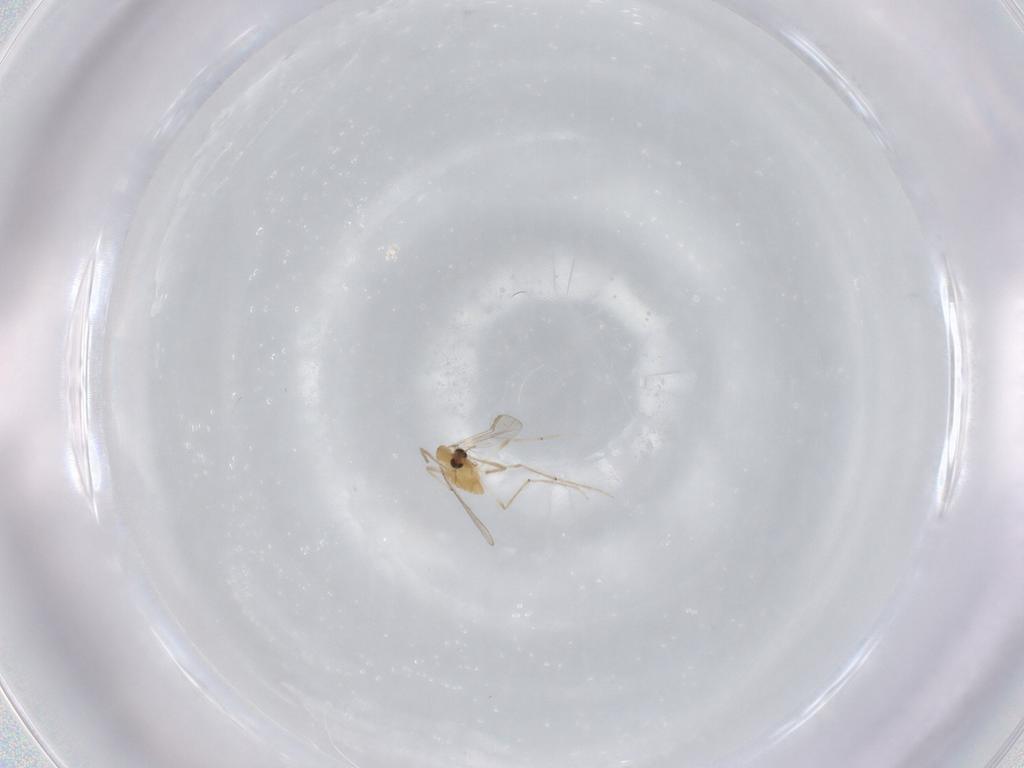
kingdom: Animalia
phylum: Arthropoda
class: Insecta
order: Diptera
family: Chironomidae
